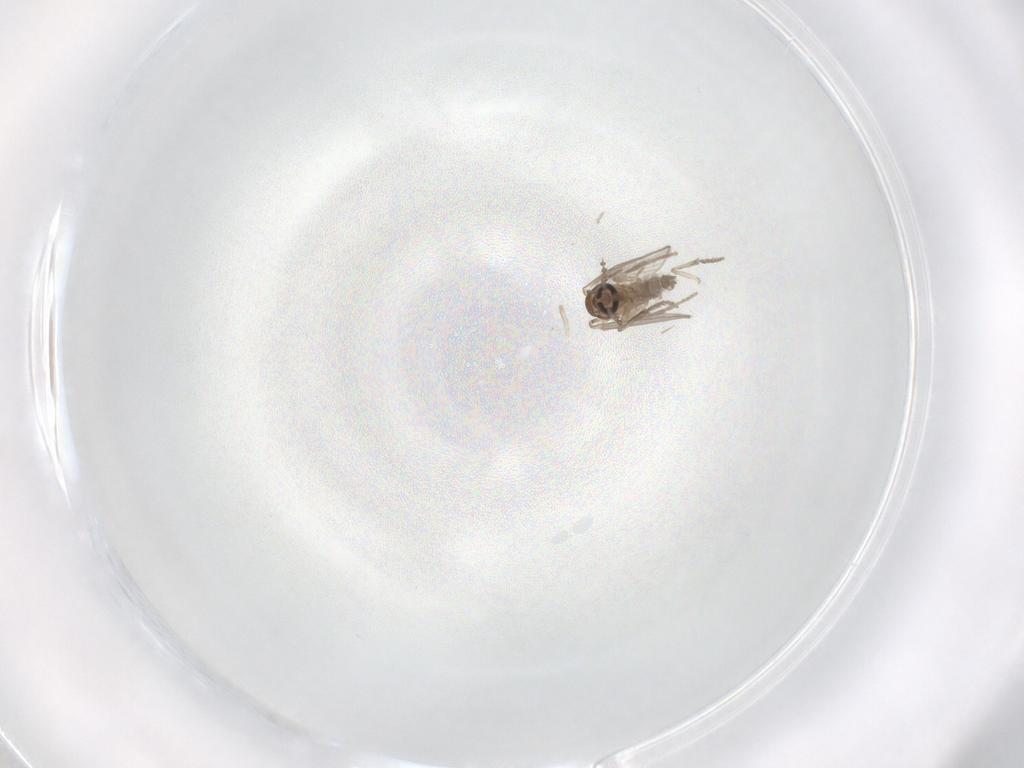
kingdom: Animalia
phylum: Arthropoda
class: Insecta
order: Diptera
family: Psychodidae
